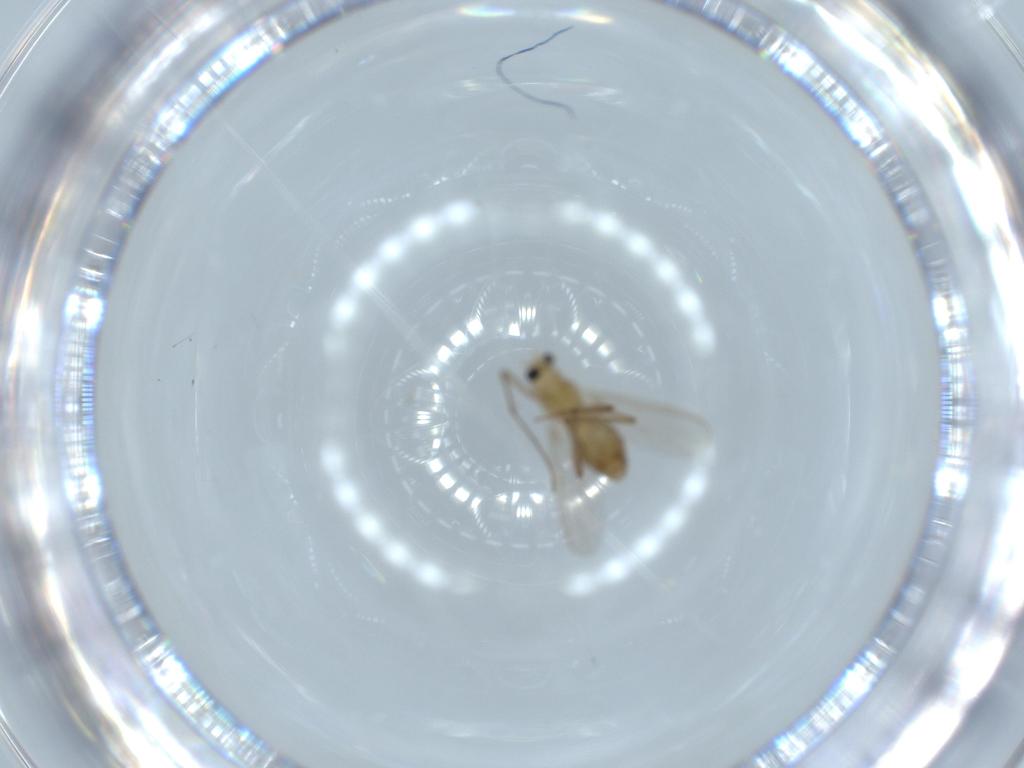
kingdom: Animalia
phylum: Arthropoda
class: Insecta
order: Diptera
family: Chironomidae
